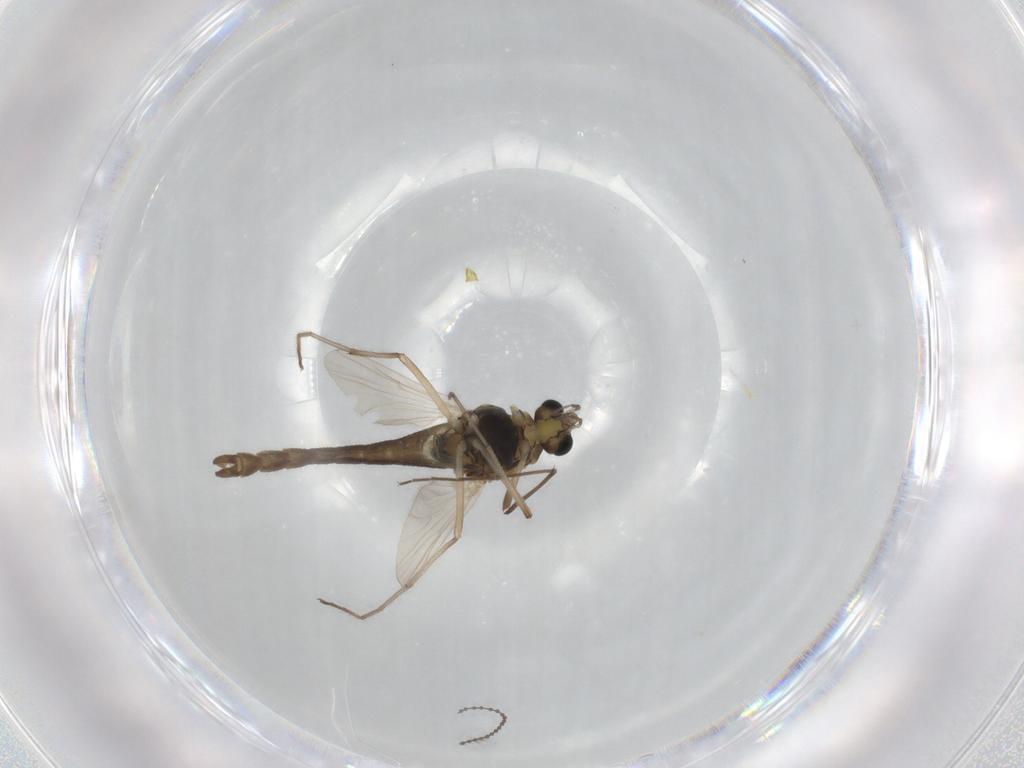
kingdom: Animalia
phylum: Arthropoda
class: Insecta
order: Diptera
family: Chironomidae
